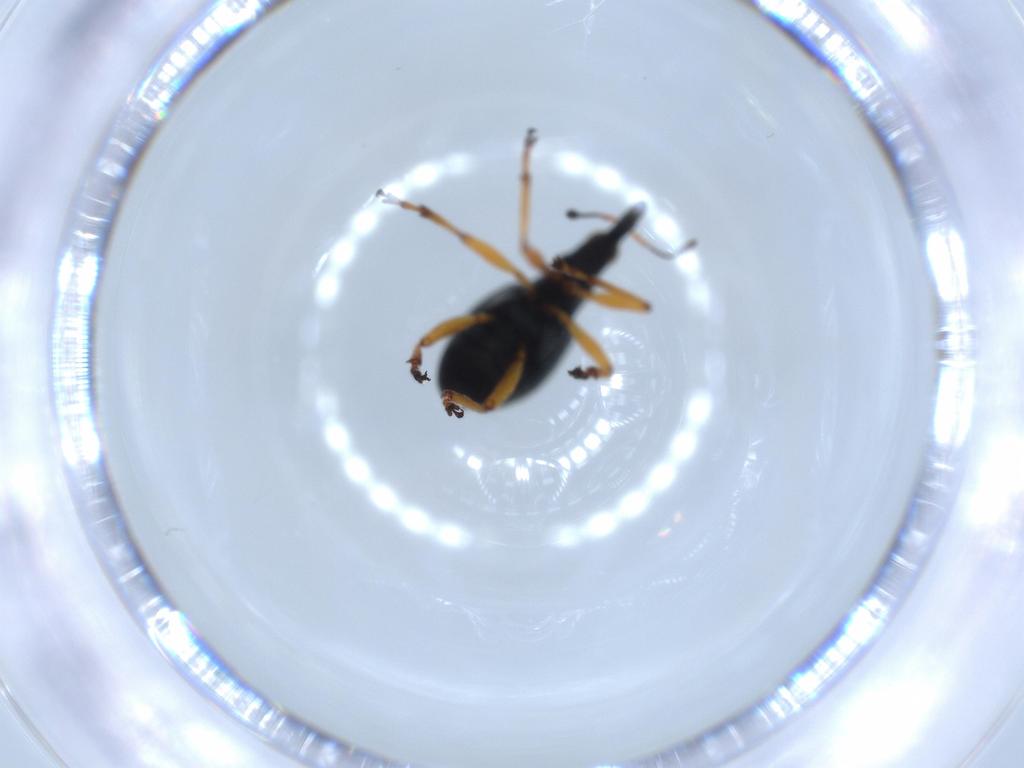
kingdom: Animalia
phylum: Arthropoda
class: Insecta
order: Coleoptera
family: Brentidae
